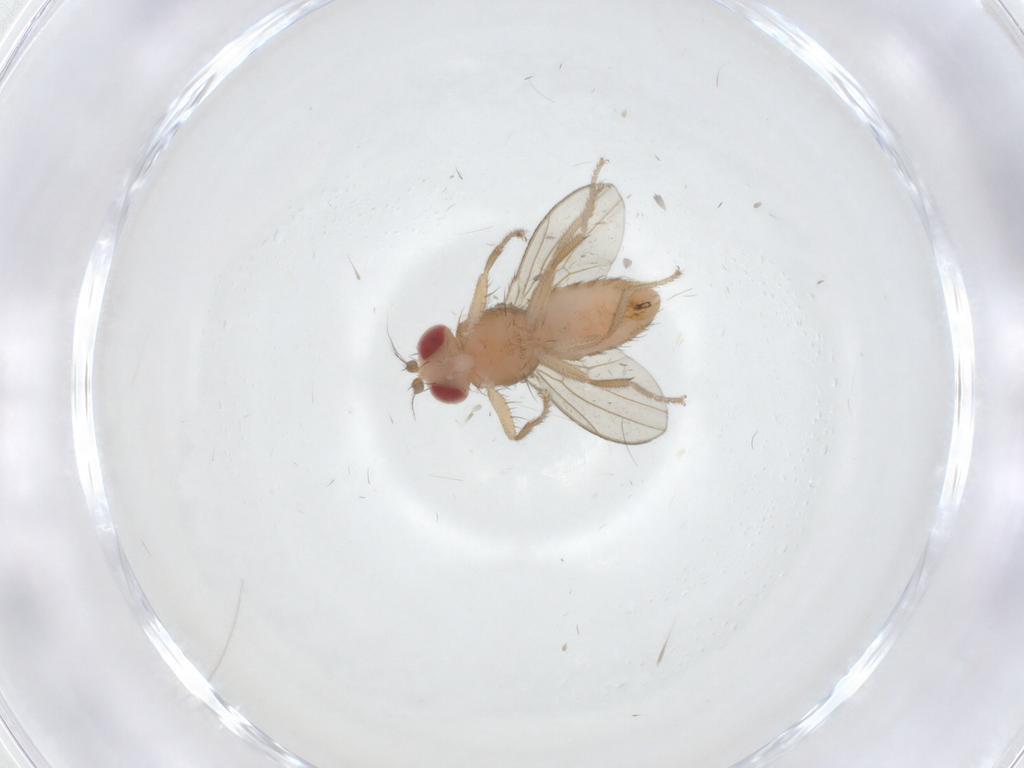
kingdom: Animalia
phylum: Arthropoda
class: Insecta
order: Diptera
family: Drosophilidae
